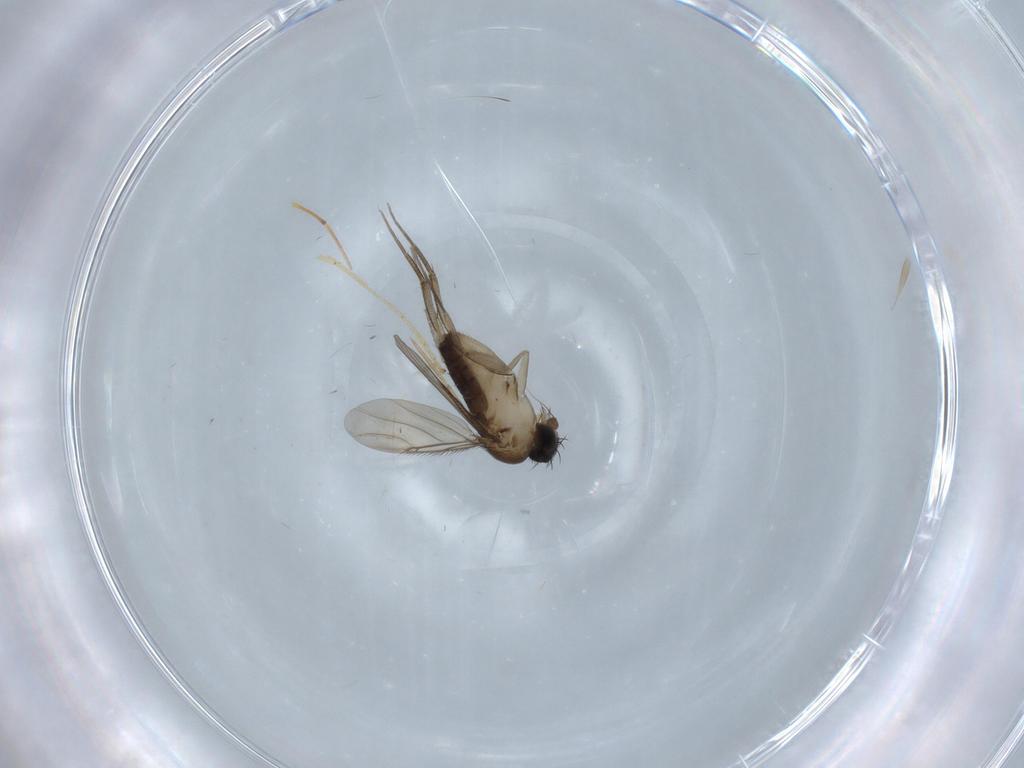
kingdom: Animalia
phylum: Arthropoda
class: Insecta
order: Diptera
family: Phoridae
